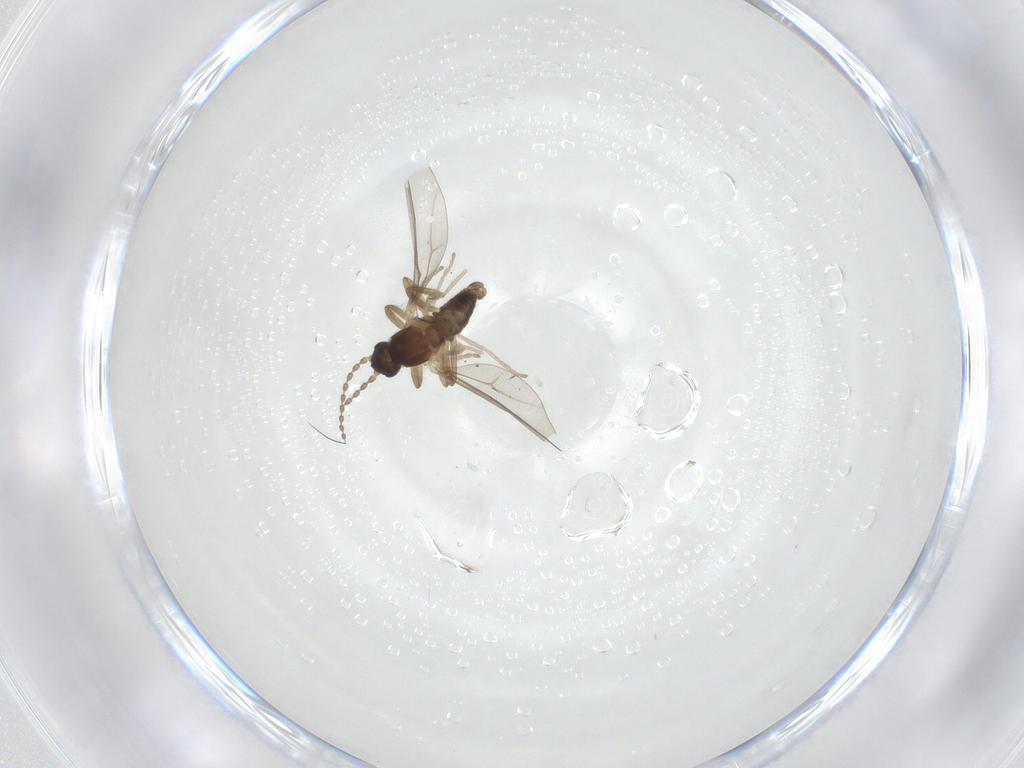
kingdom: Animalia
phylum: Arthropoda
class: Insecta
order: Diptera
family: Cecidomyiidae
